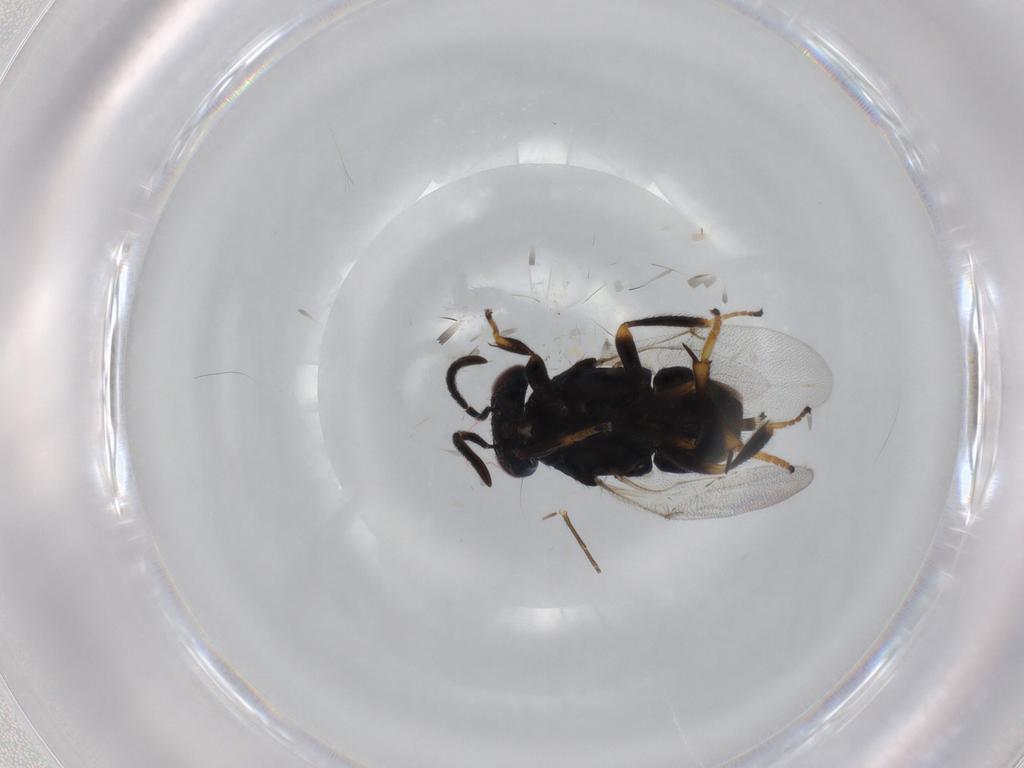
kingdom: Animalia
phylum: Arthropoda
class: Insecta
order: Hymenoptera
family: Encyrtidae
